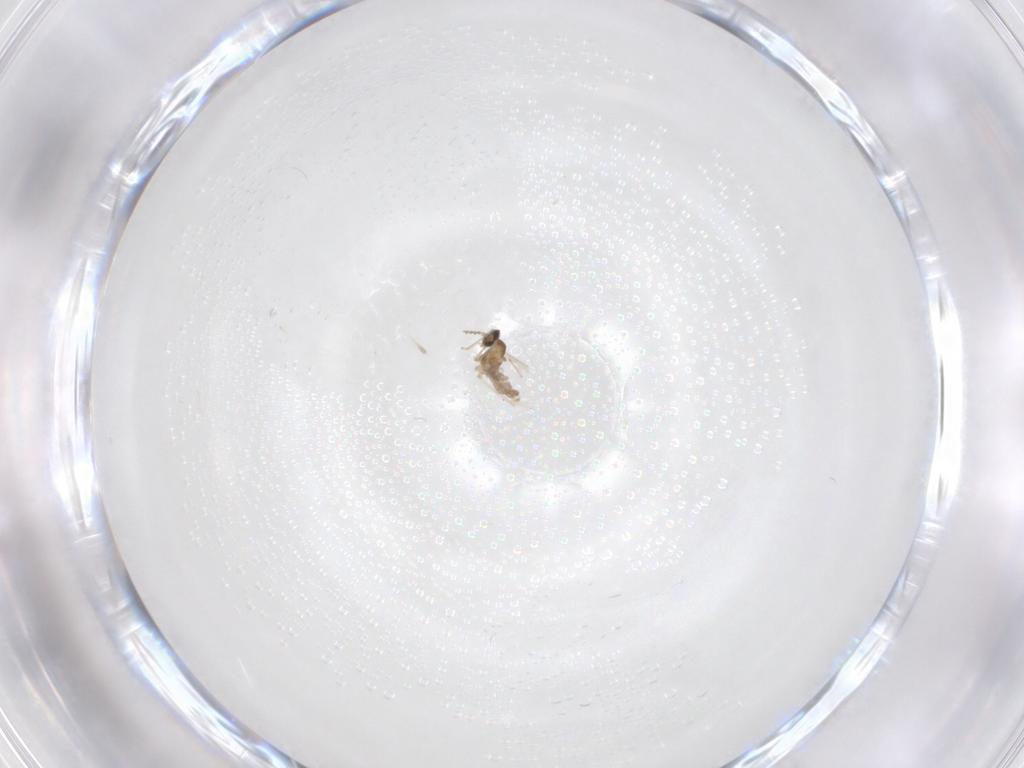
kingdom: Animalia
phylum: Arthropoda
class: Insecta
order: Diptera
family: Cecidomyiidae
